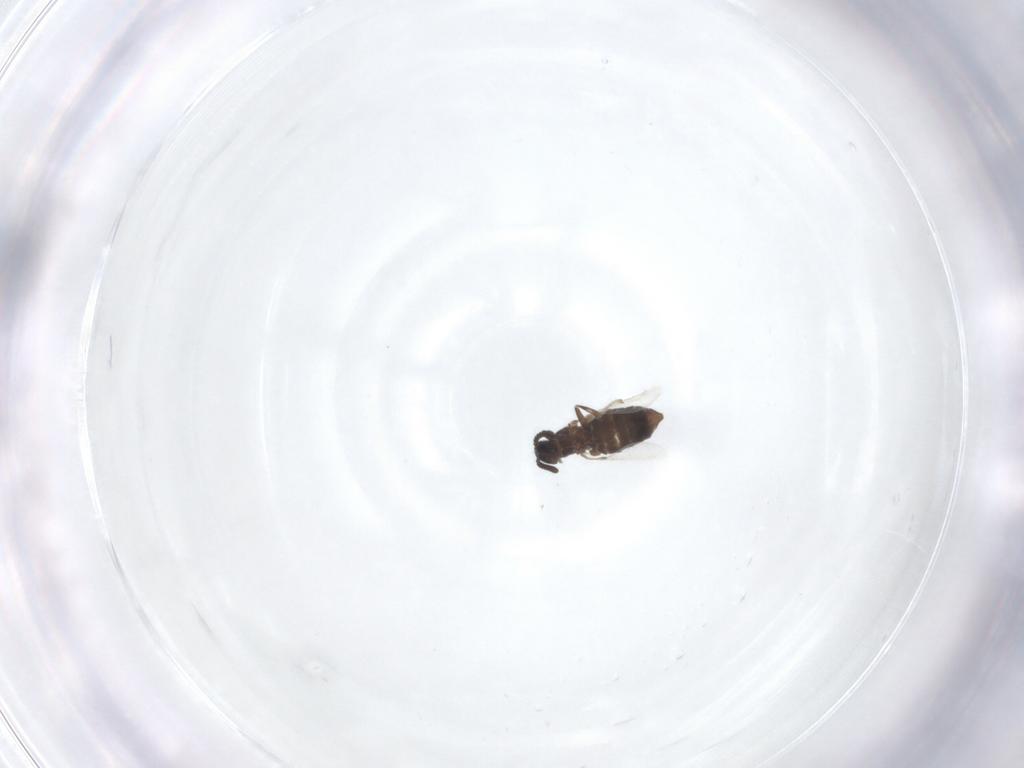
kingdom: Animalia
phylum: Arthropoda
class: Insecta
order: Diptera
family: Scatopsidae
